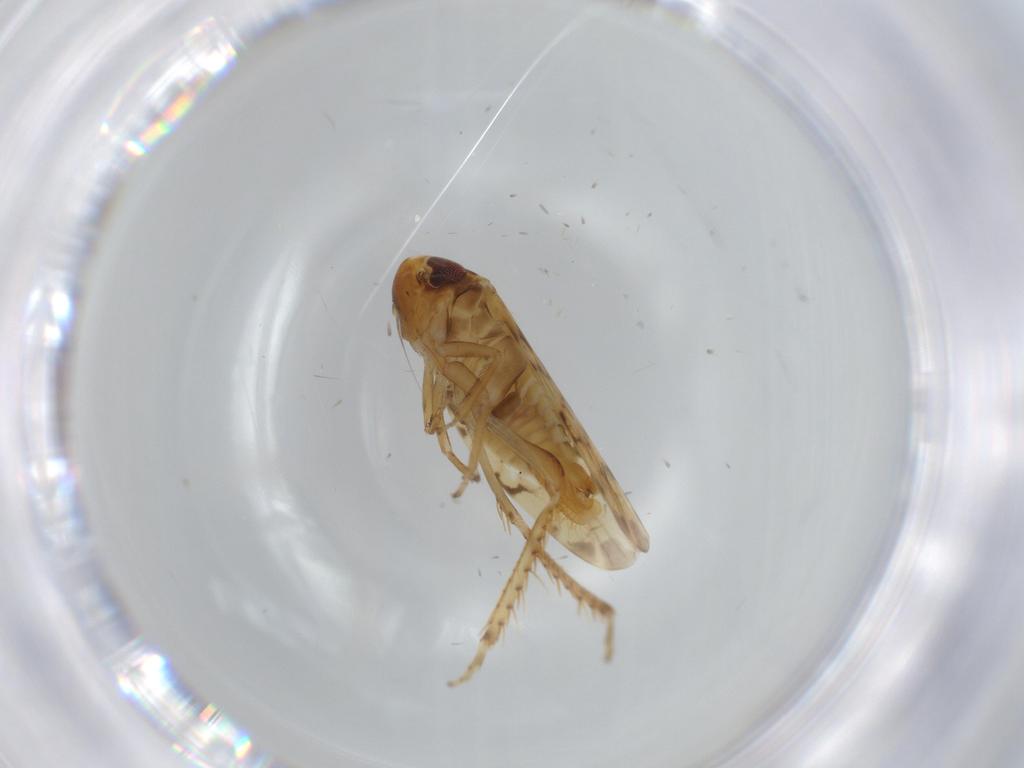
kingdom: Animalia
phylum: Arthropoda
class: Insecta
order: Hemiptera
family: Cicadellidae
